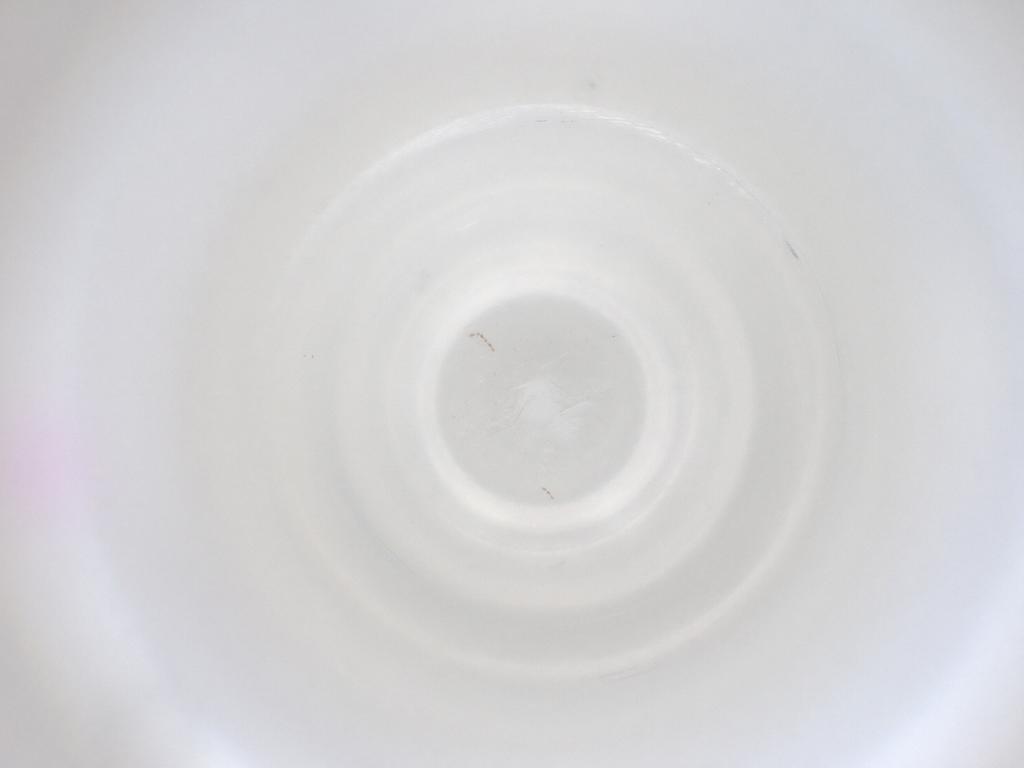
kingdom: Animalia
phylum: Arthropoda
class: Insecta
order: Diptera
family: Cecidomyiidae
